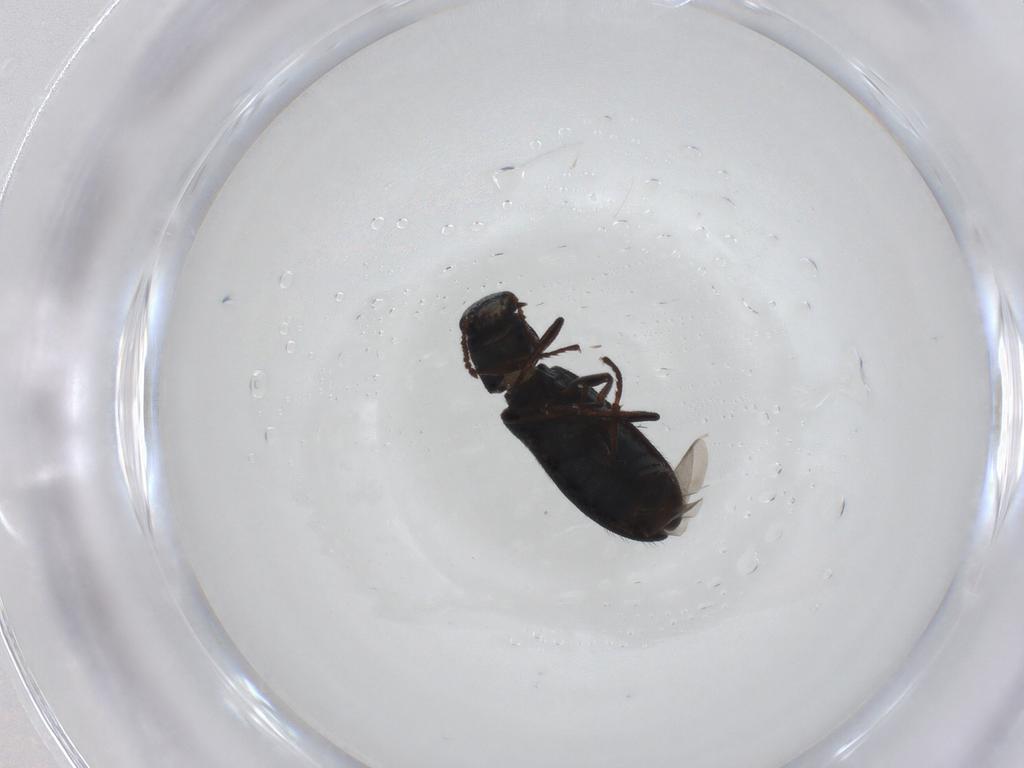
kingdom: Animalia
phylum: Arthropoda
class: Insecta
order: Coleoptera
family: Melyridae
